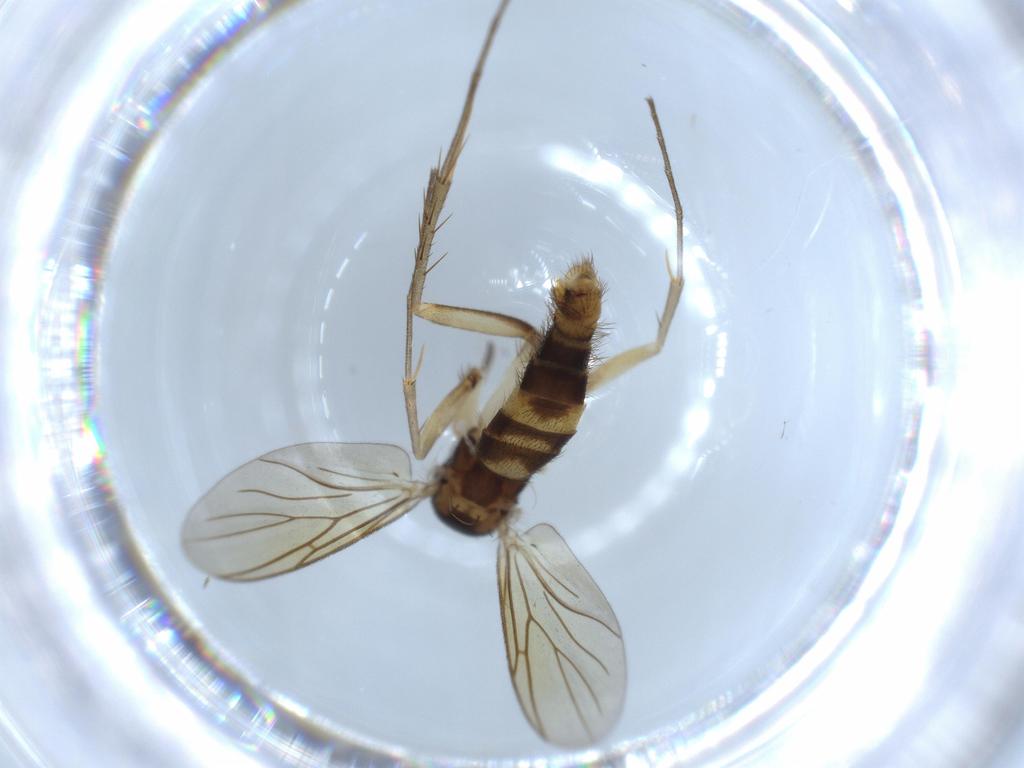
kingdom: Animalia
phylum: Arthropoda
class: Insecta
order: Diptera
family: Mycetophilidae
